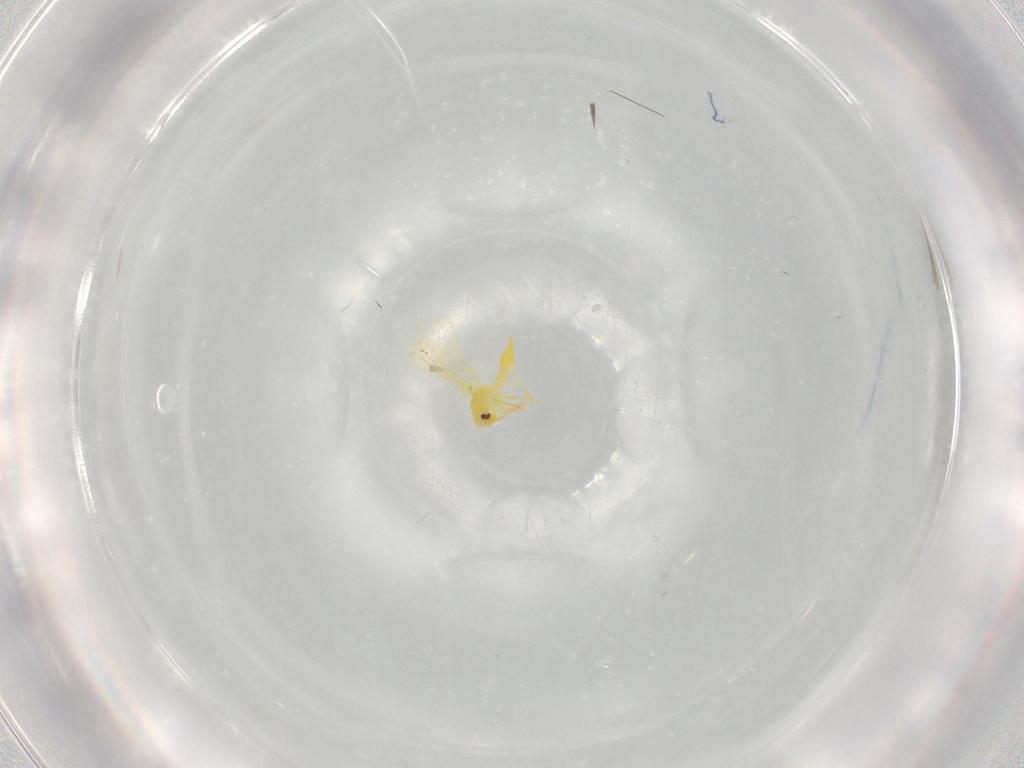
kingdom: Animalia
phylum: Arthropoda
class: Insecta
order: Hemiptera
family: Aleyrodidae
